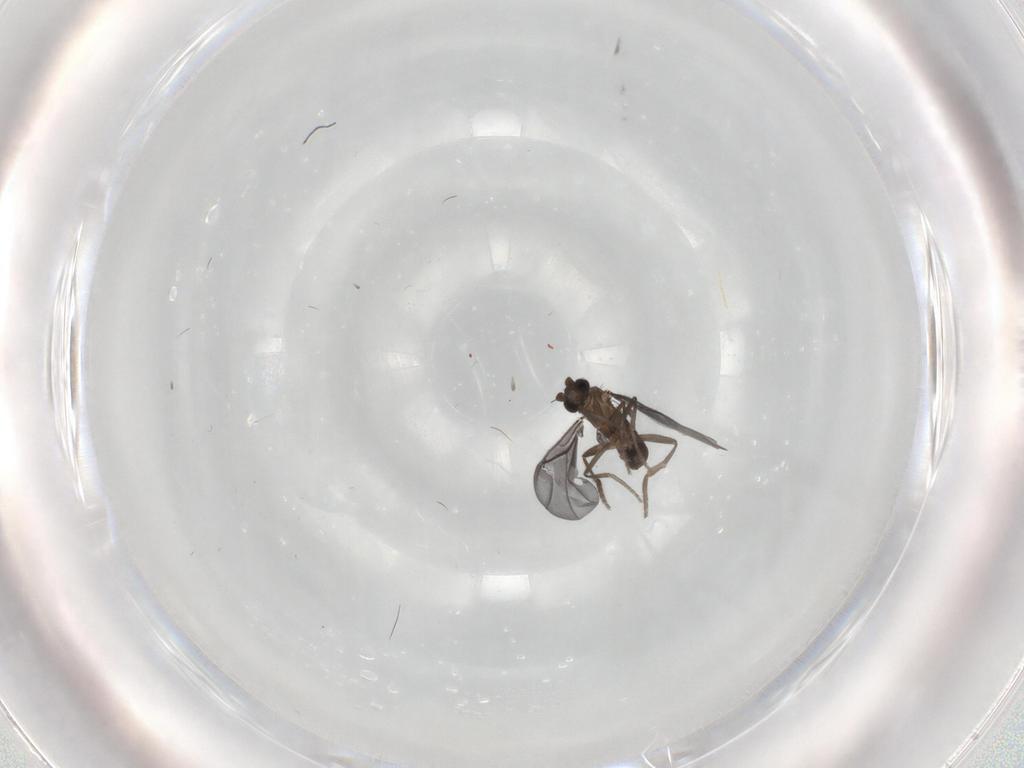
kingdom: Animalia
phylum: Arthropoda
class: Insecta
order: Diptera
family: Phoridae
